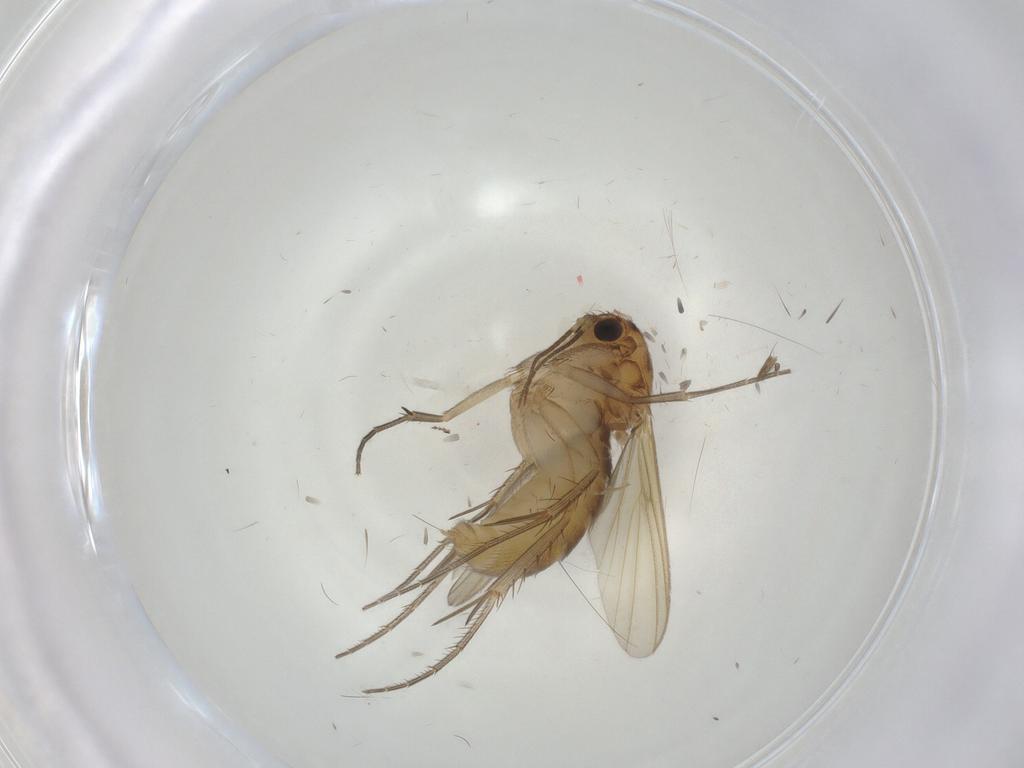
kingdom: Animalia
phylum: Arthropoda
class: Insecta
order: Diptera
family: Mycetophilidae
